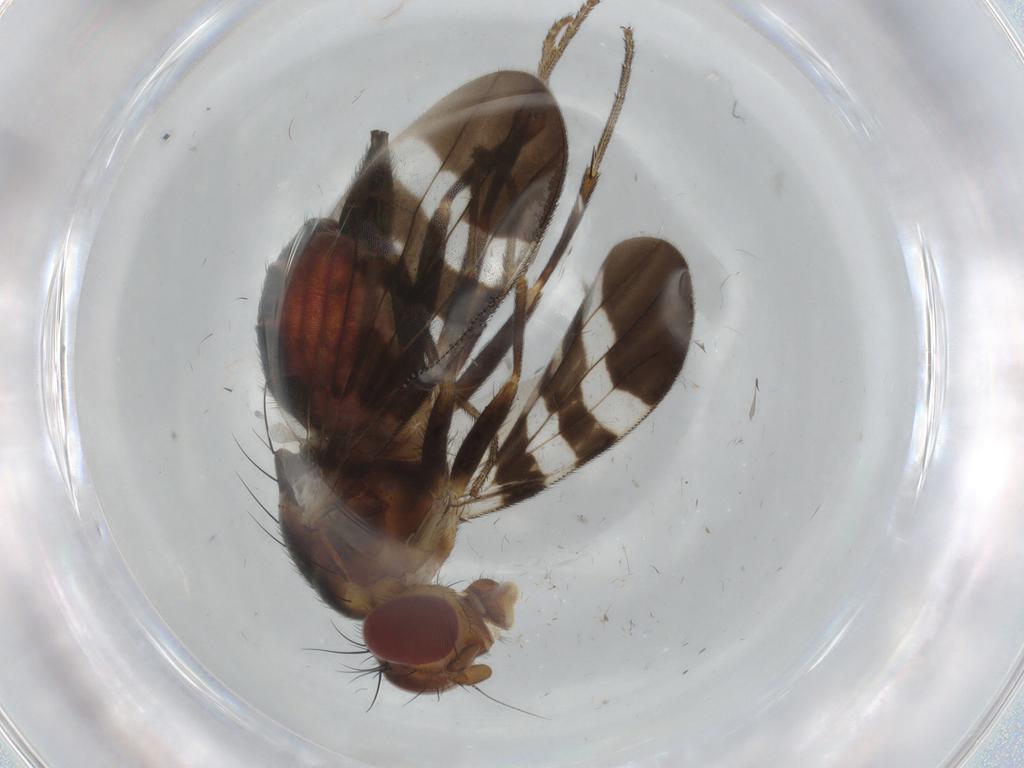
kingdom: Animalia
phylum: Arthropoda
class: Insecta
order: Diptera
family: Tephritidae
